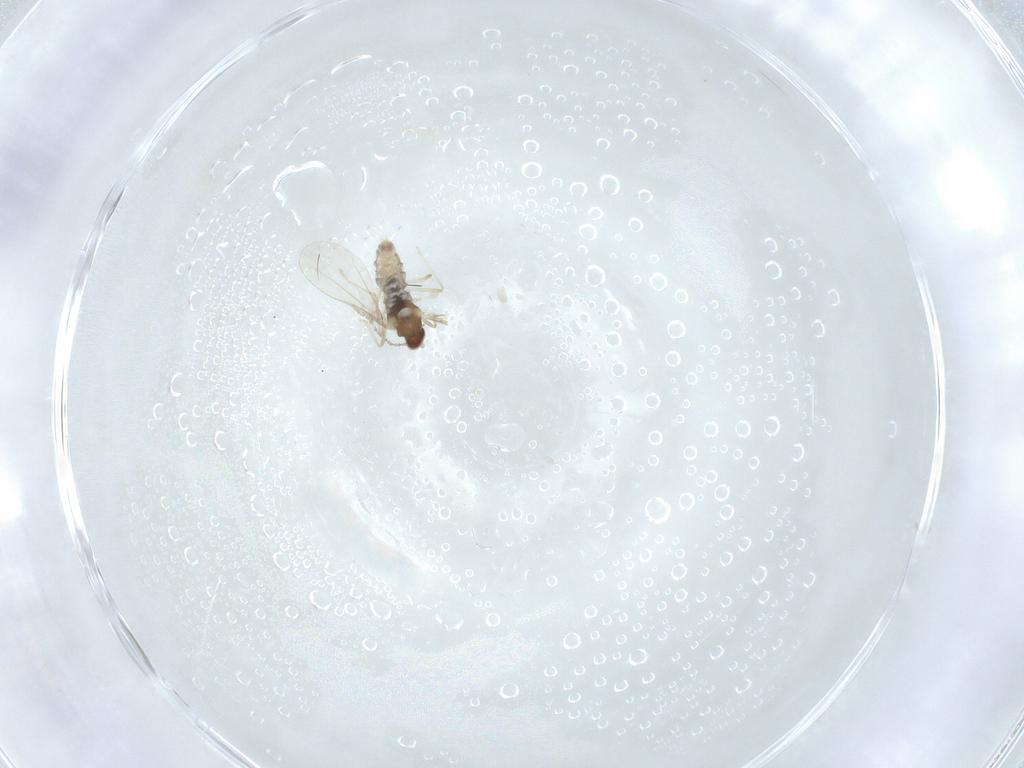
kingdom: Animalia
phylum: Arthropoda
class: Insecta
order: Diptera
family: Cecidomyiidae
